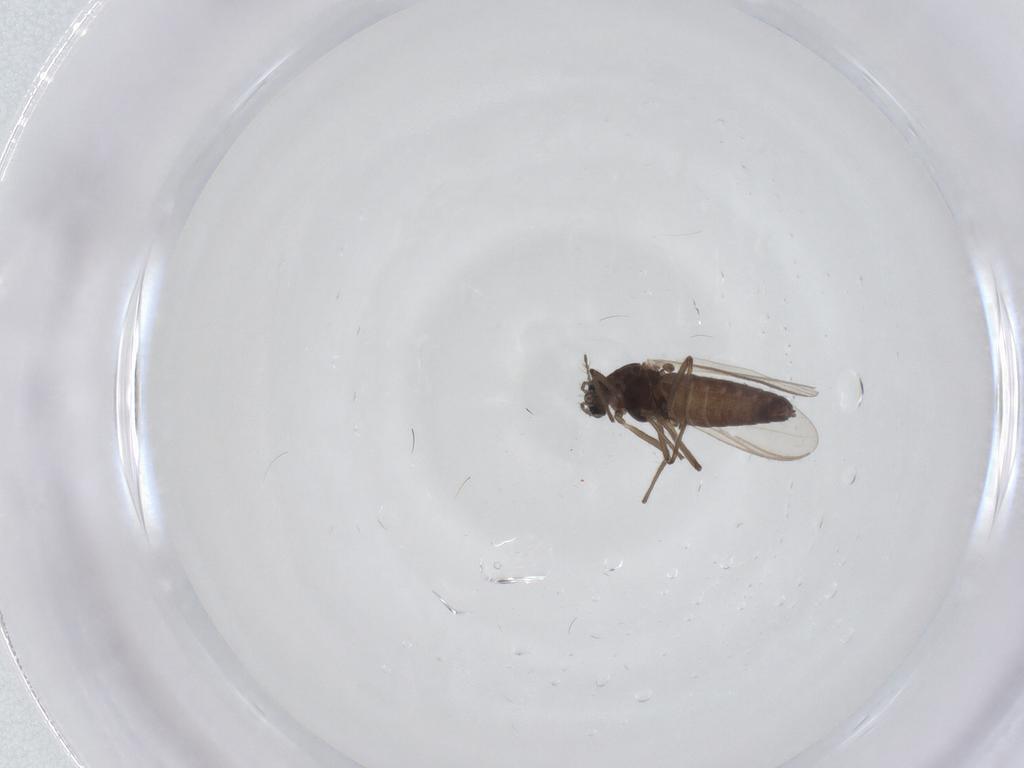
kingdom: Animalia
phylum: Arthropoda
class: Insecta
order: Diptera
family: Chironomidae
